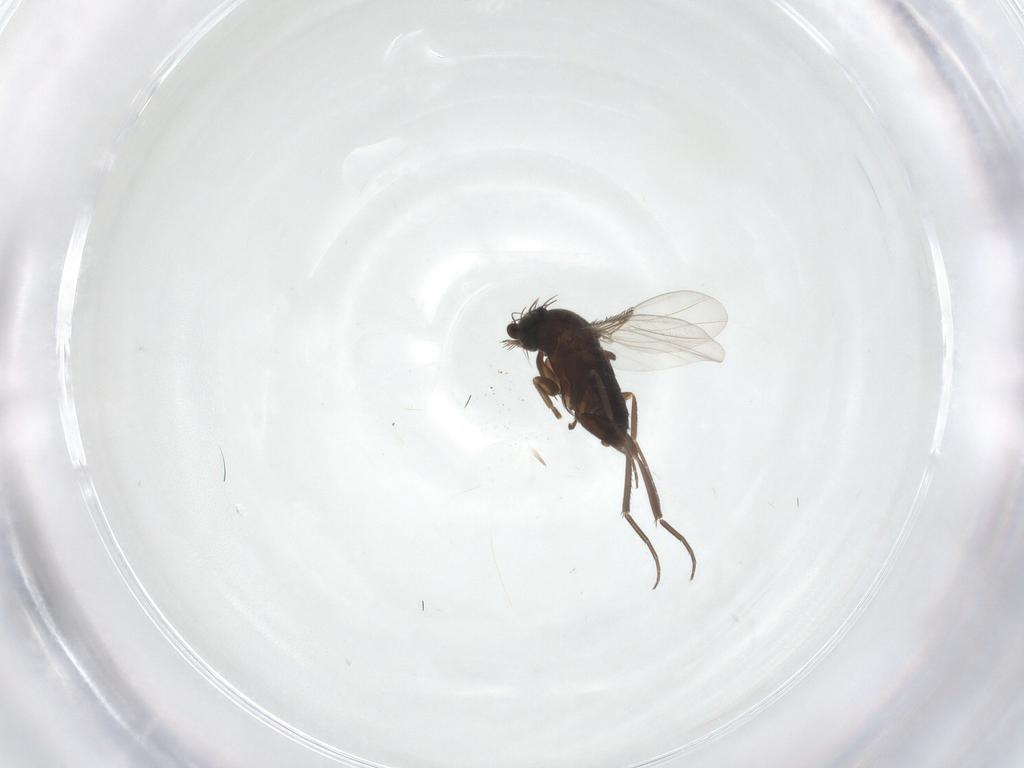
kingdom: Animalia
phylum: Arthropoda
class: Insecta
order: Diptera
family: Phoridae
